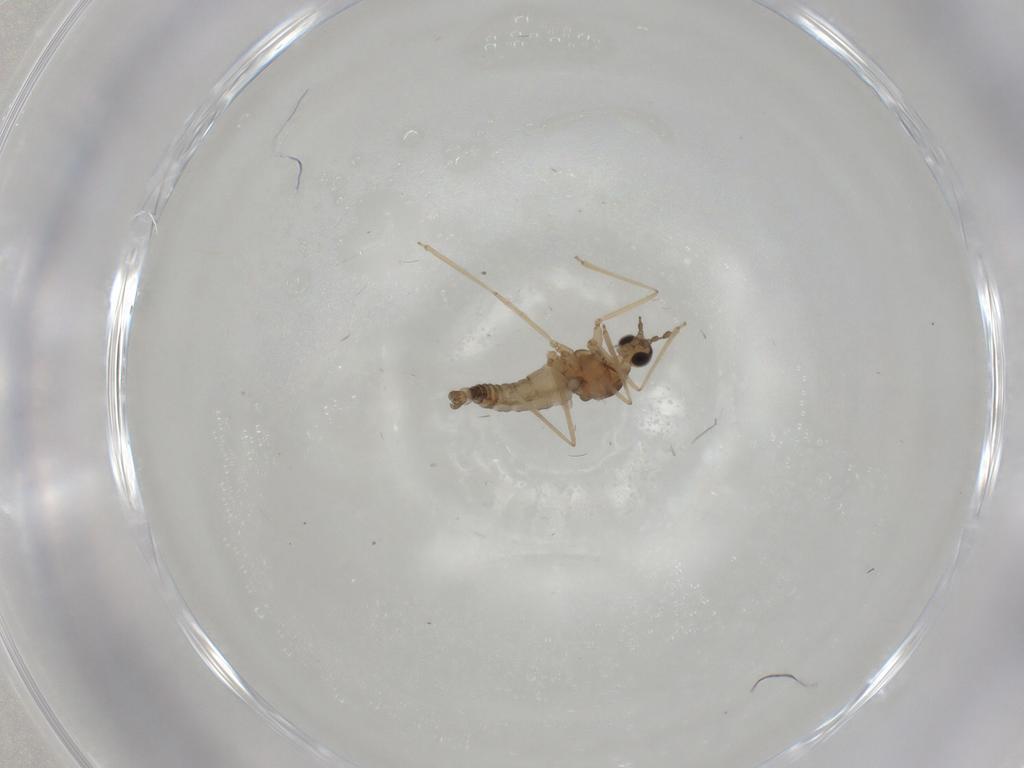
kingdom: Animalia
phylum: Arthropoda
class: Insecta
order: Diptera
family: Cecidomyiidae
